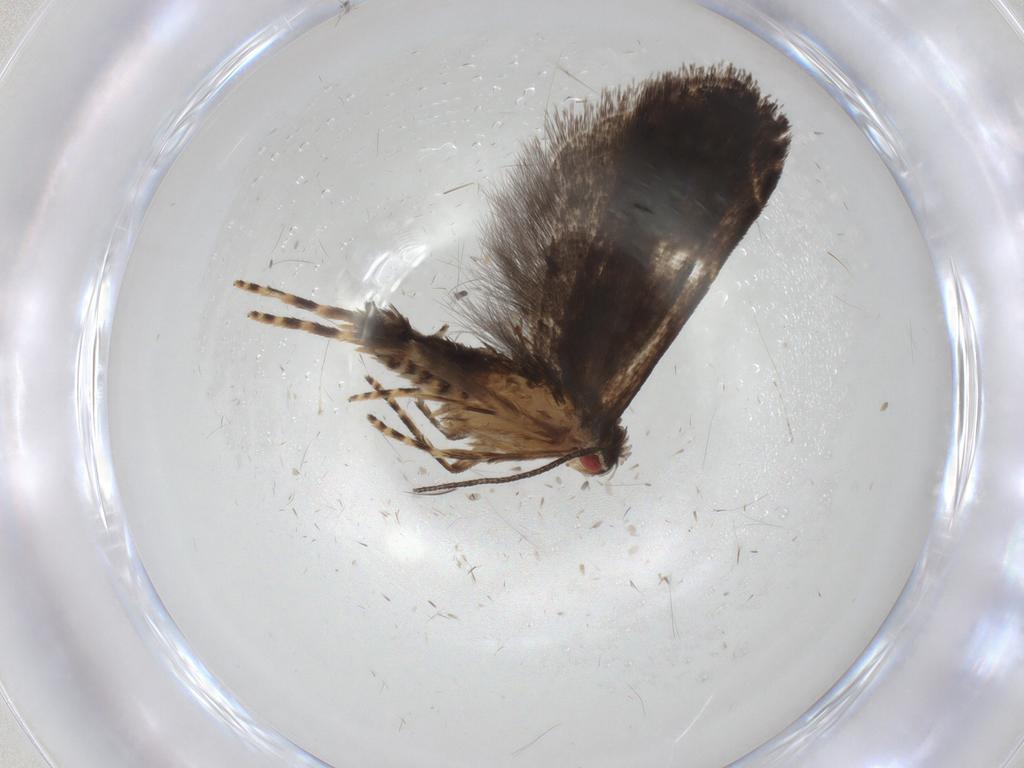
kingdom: Animalia
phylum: Arthropoda
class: Insecta
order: Lepidoptera
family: Gelechiidae
